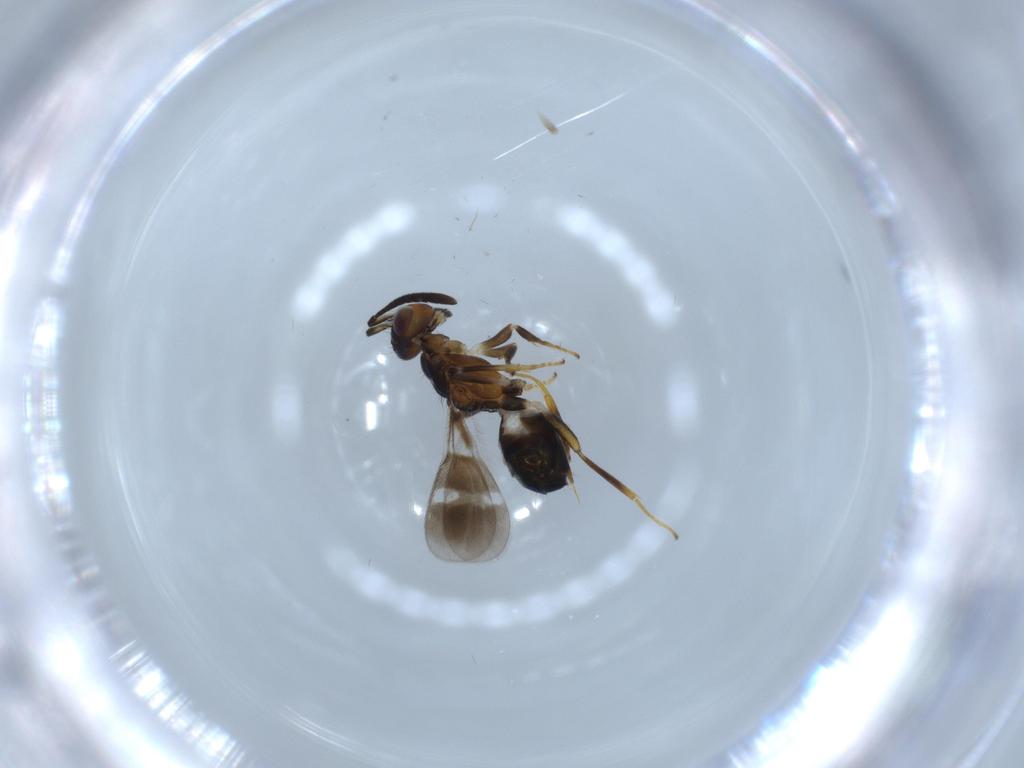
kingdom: Animalia
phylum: Arthropoda
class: Insecta
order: Hymenoptera
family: Eupelmidae
